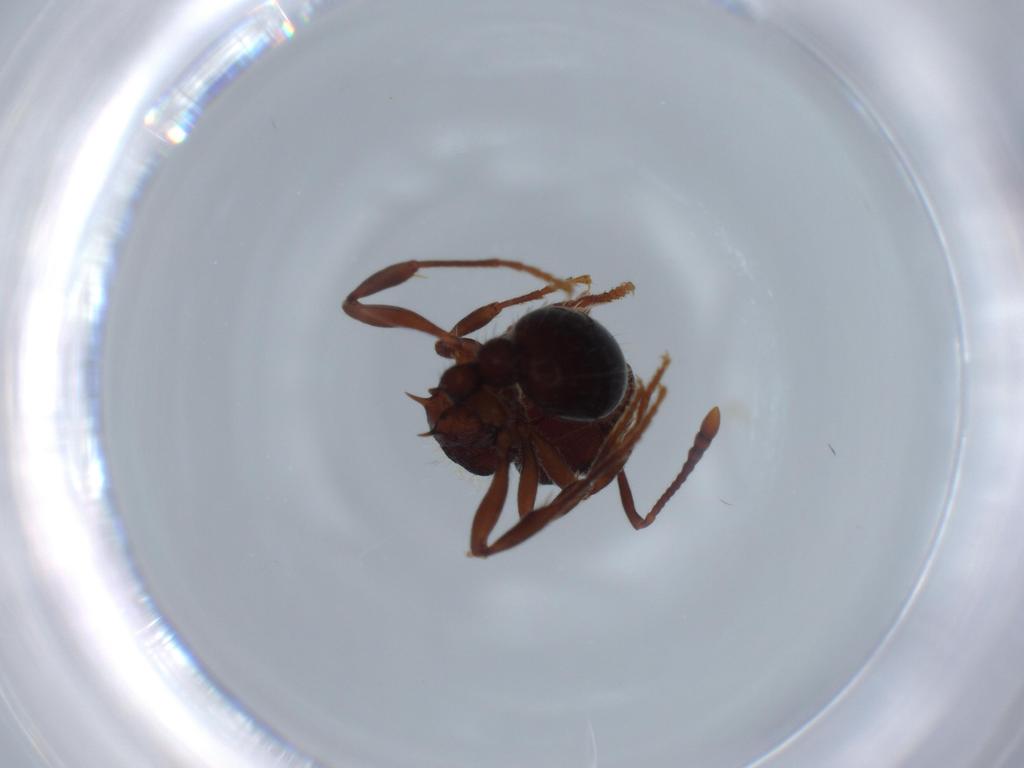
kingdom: Animalia
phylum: Arthropoda
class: Insecta
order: Hymenoptera
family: Formicidae
